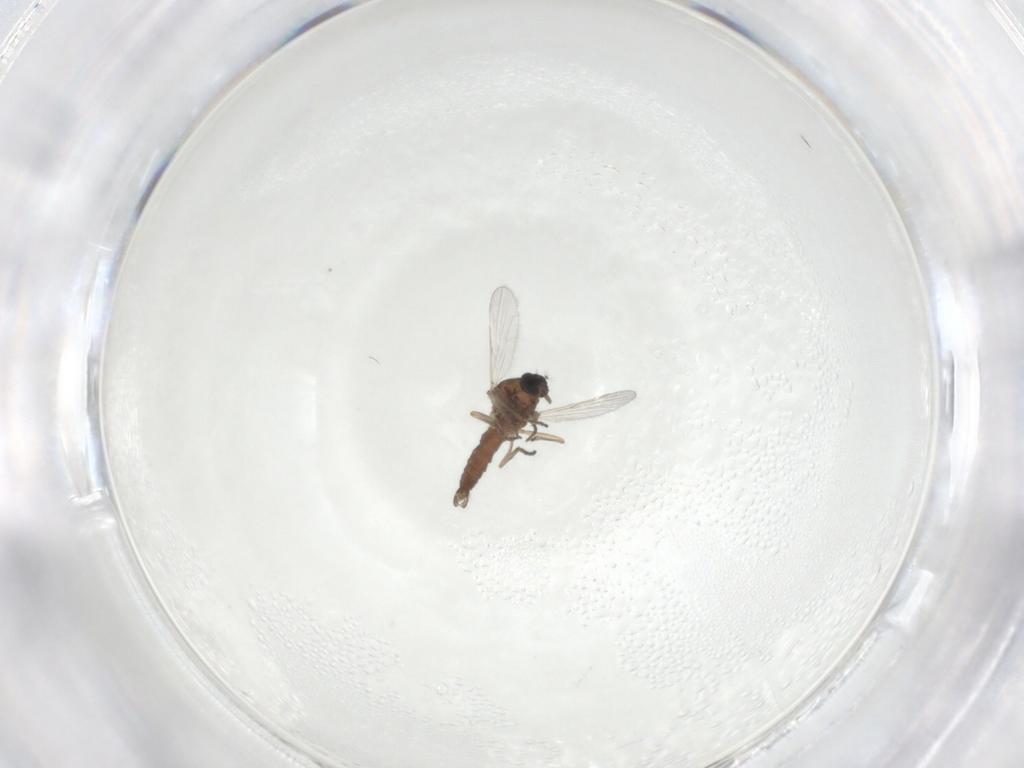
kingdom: Animalia
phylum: Arthropoda
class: Insecta
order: Diptera
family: Ceratopogonidae
